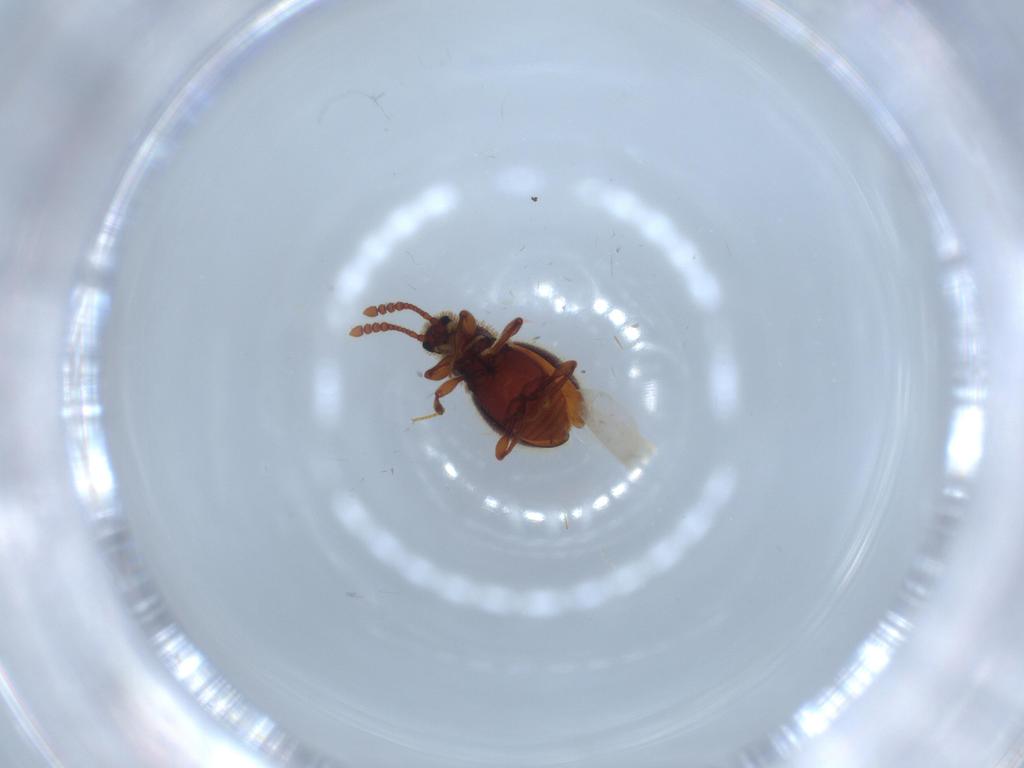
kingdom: Animalia
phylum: Arthropoda
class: Insecta
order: Coleoptera
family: Staphylinidae
